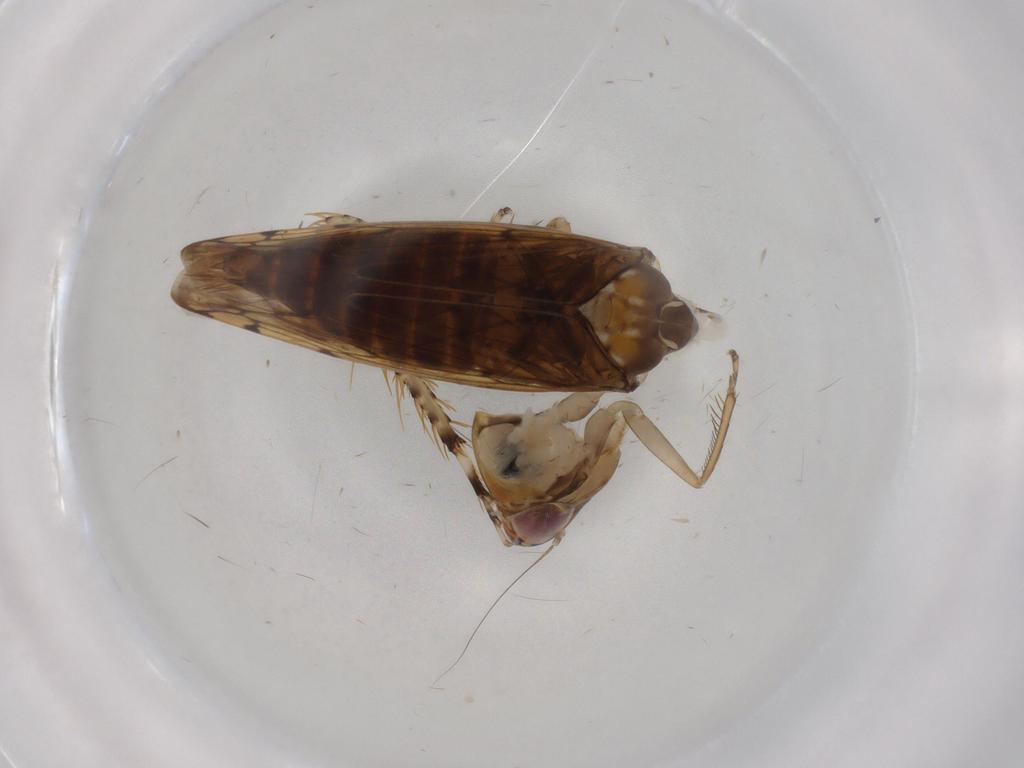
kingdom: Animalia
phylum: Arthropoda
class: Insecta
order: Hemiptera
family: Cicadellidae
